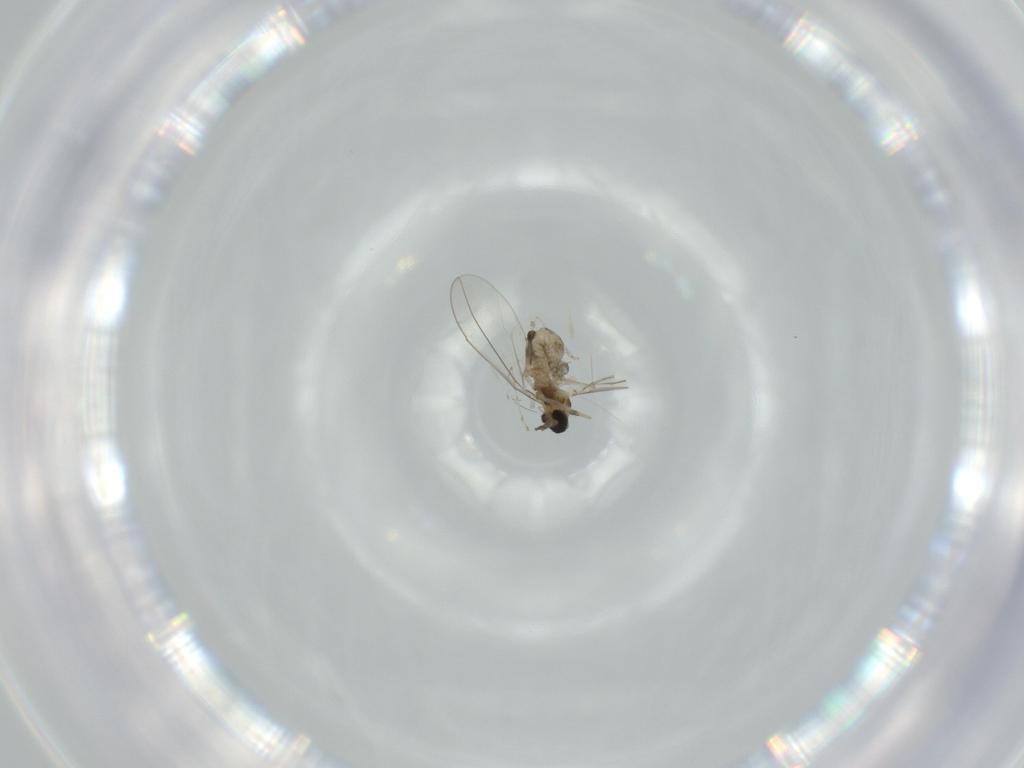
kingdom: Animalia
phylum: Arthropoda
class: Insecta
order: Diptera
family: Cecidomyiidae
